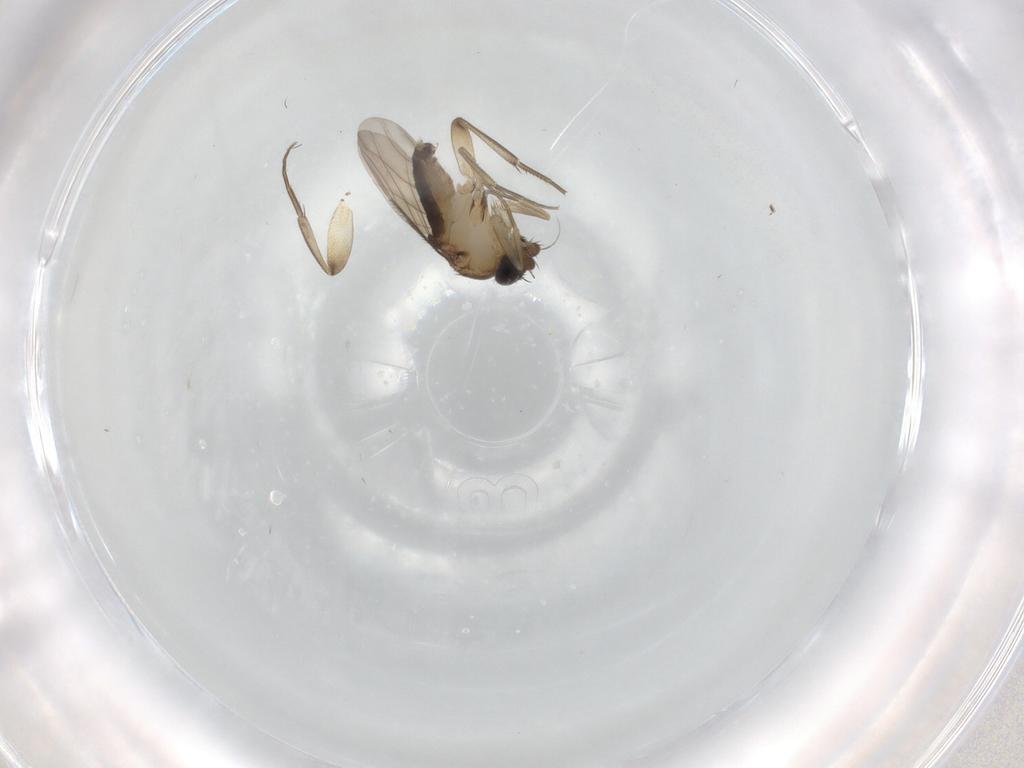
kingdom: Animalia
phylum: Arthropoda
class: Insecta
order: Diptera
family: Phoridae
